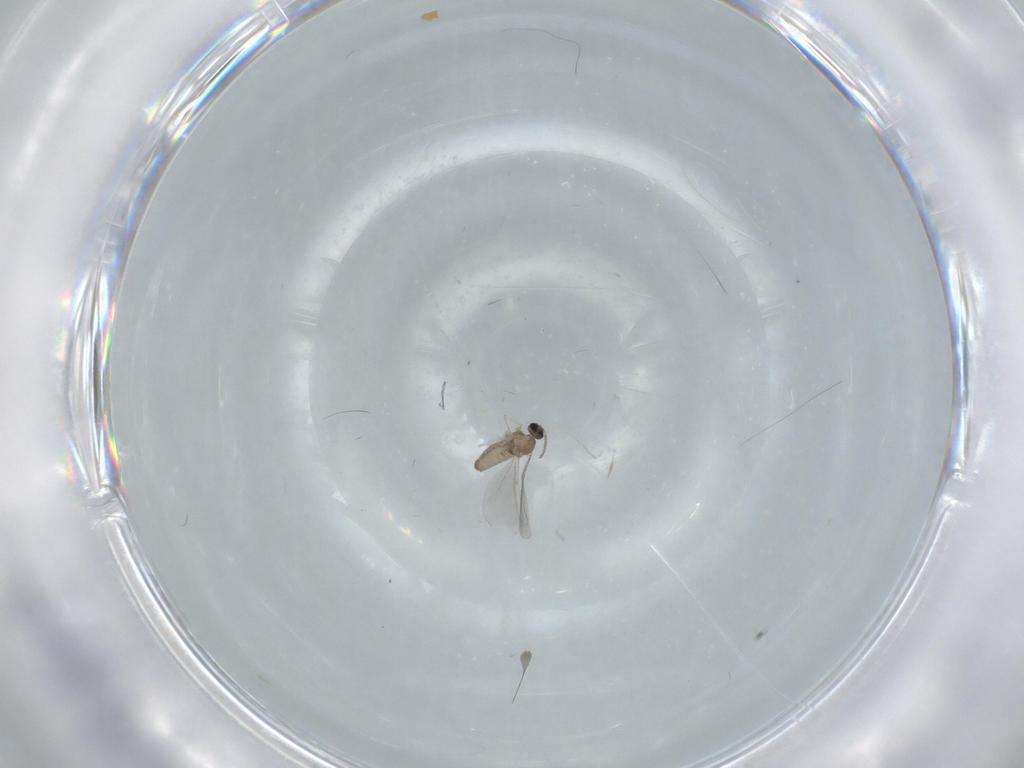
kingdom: Animalia
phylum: Arthropoda
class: Insecta
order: Diptera
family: Cecidomyiidae
